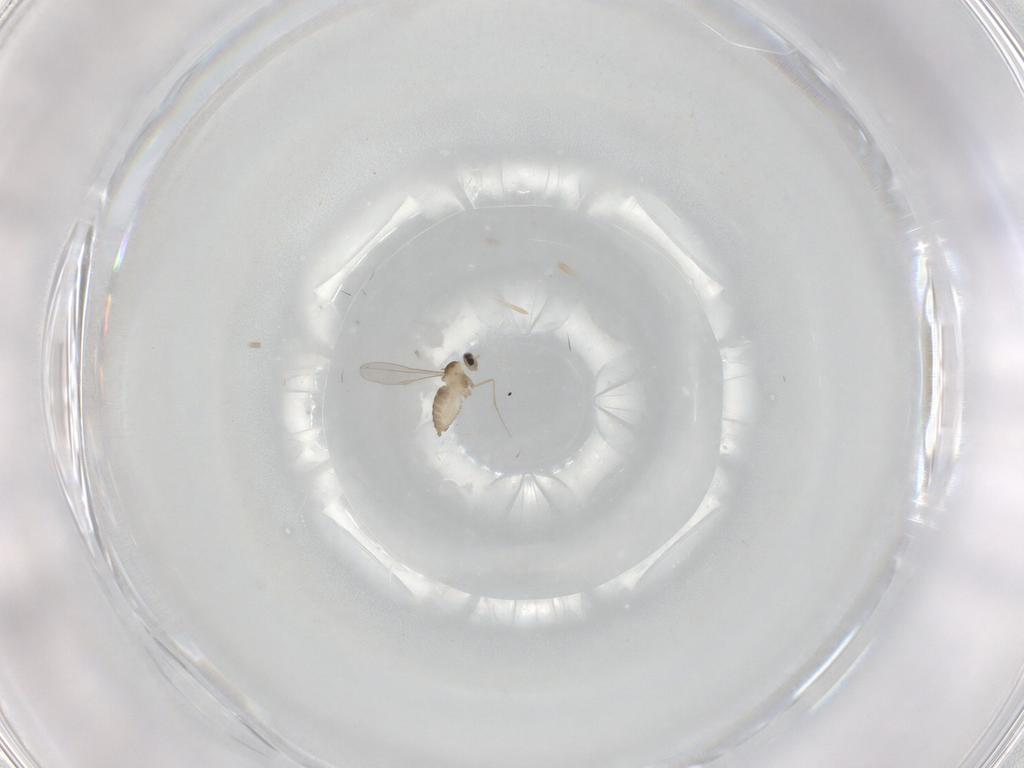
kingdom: Animalia
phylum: Arthropoda
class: Insecta
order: Diptera
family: Cecidomyiidae
